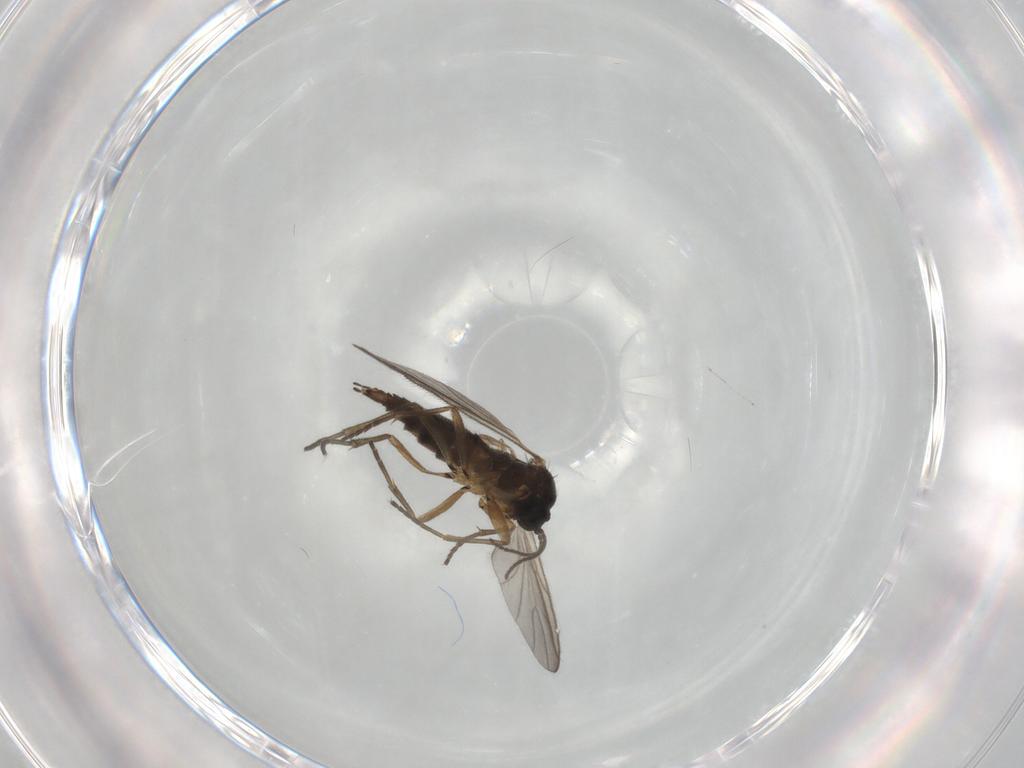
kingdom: Animalia
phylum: Arthropoda
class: Insecta
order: Diptera
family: Sciaridae
